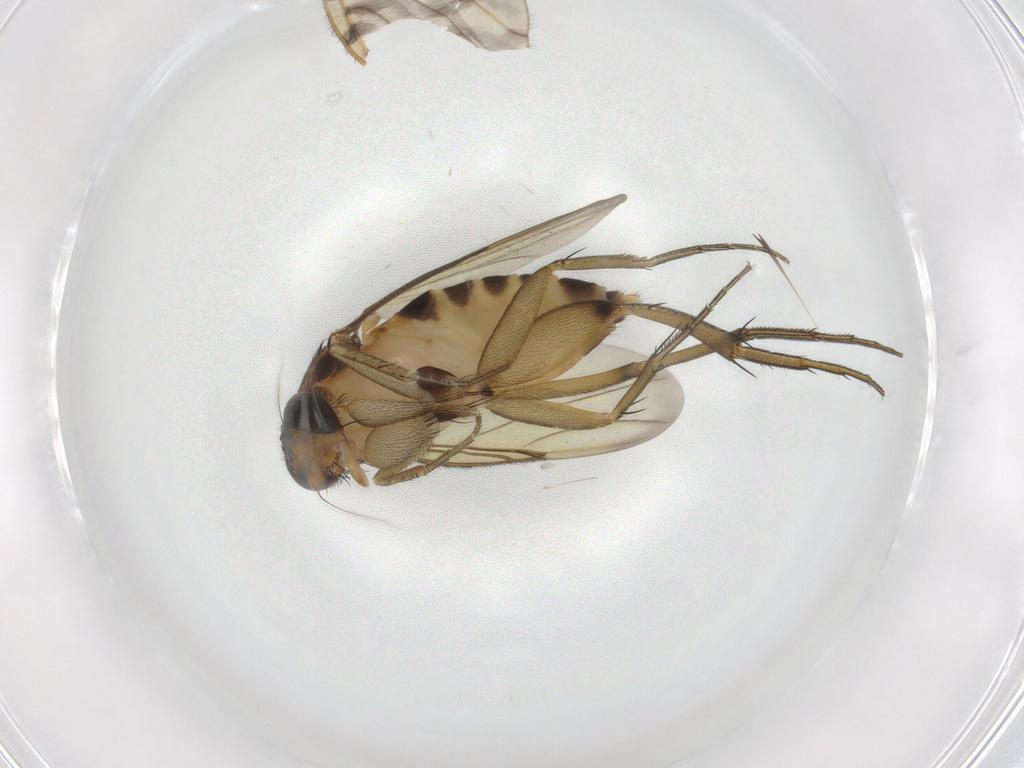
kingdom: Animalia
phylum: Arthropoda
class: Insecta
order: Diptera
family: Limoniidae
